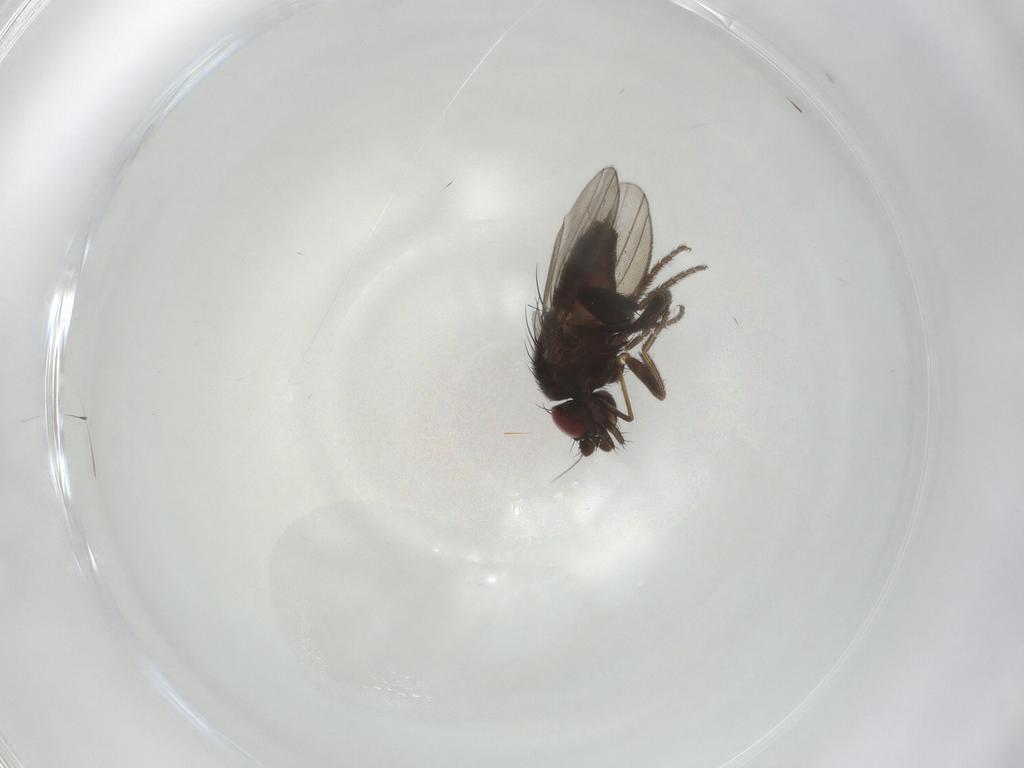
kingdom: Animalia
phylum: Arthropoda
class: Insecta
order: Diptera
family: Milichiidae
